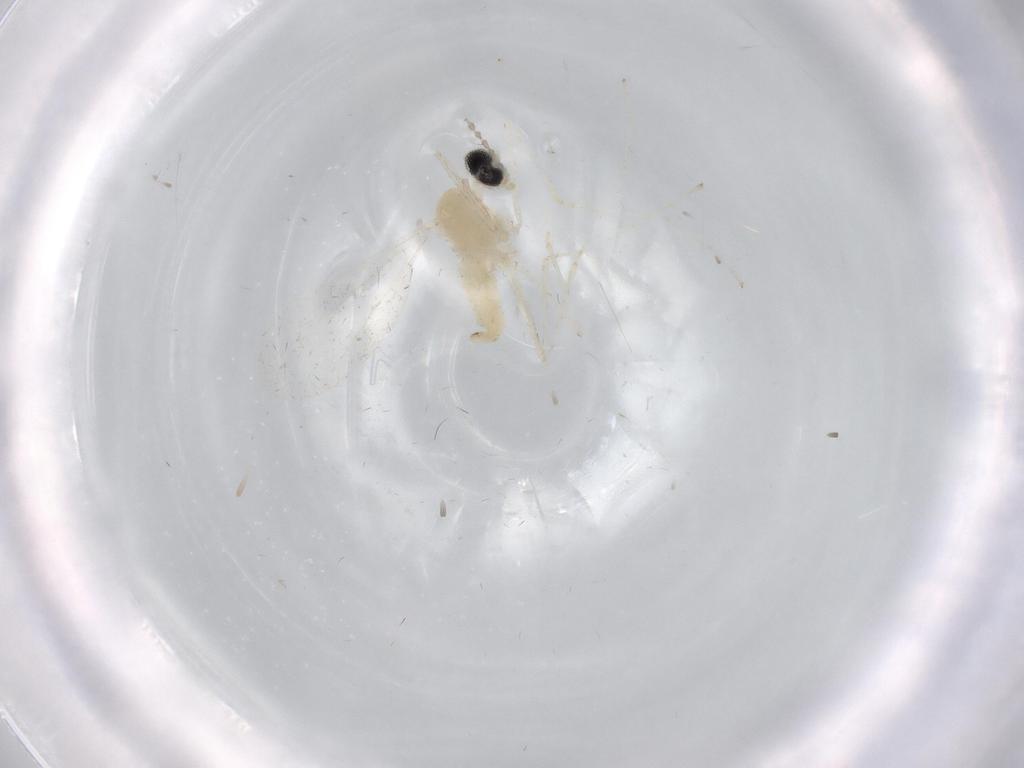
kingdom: Animalia
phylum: Arthropoda
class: Insecta
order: Diptera
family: Cecidomyiidae
